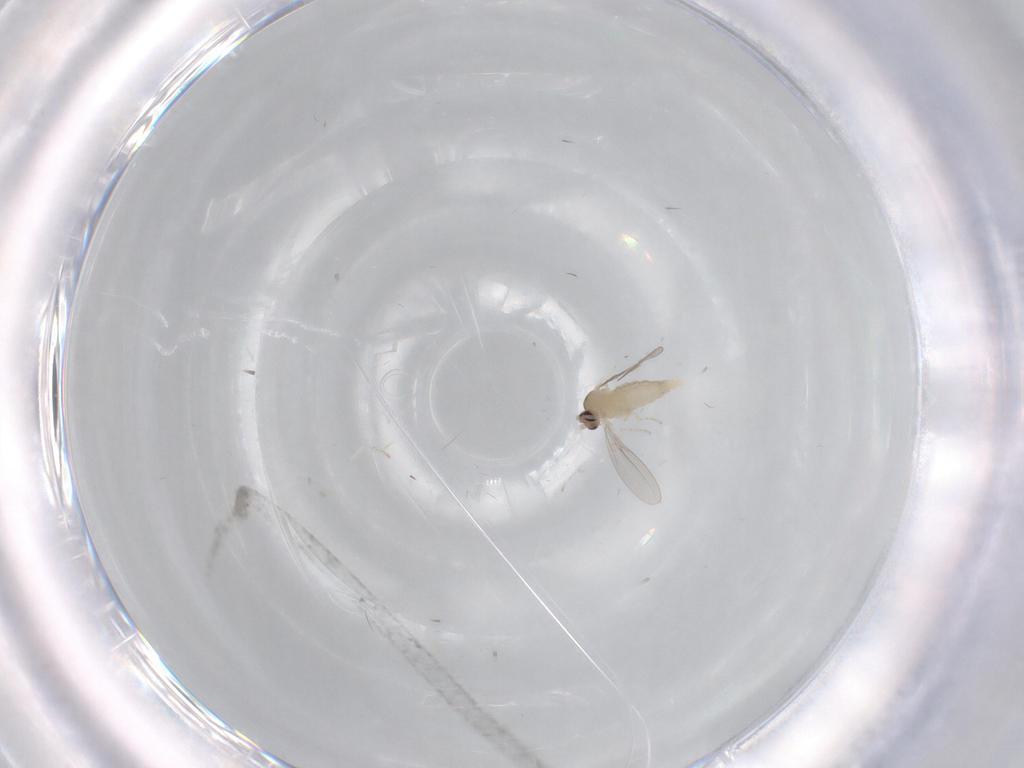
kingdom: Animalia
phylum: Arthropoda
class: Insecta
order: Diptera
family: Cecidomyiidae
